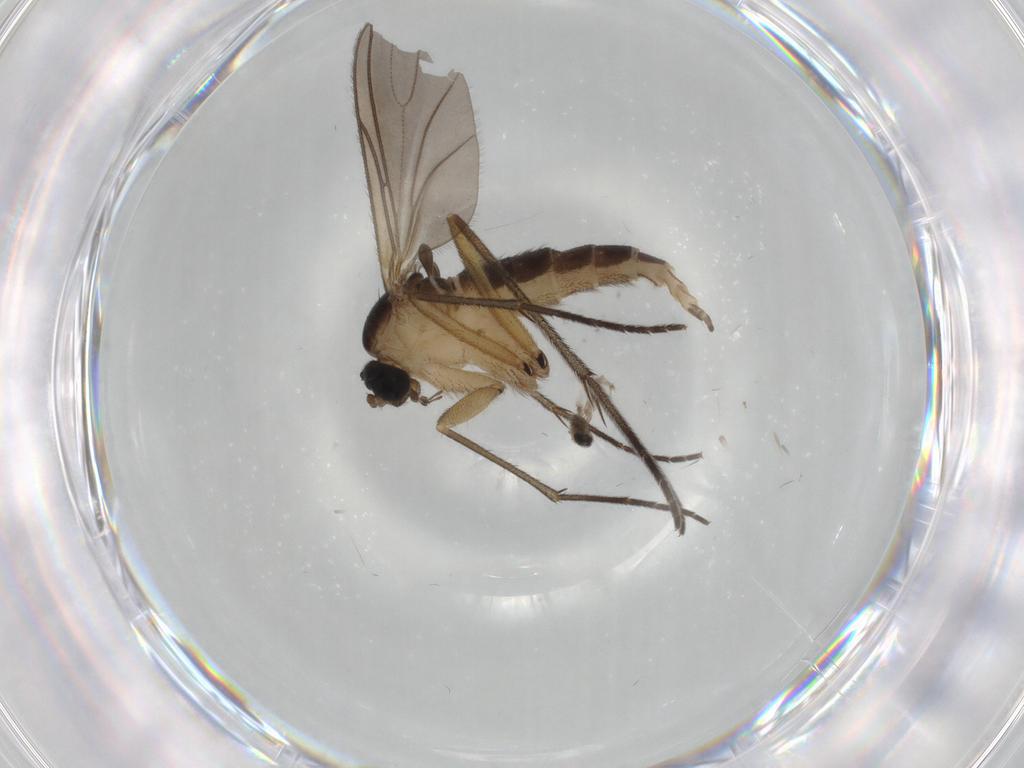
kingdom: Animalia
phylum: Arthropoda
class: Insecta
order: Diptera
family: Sciaridae
